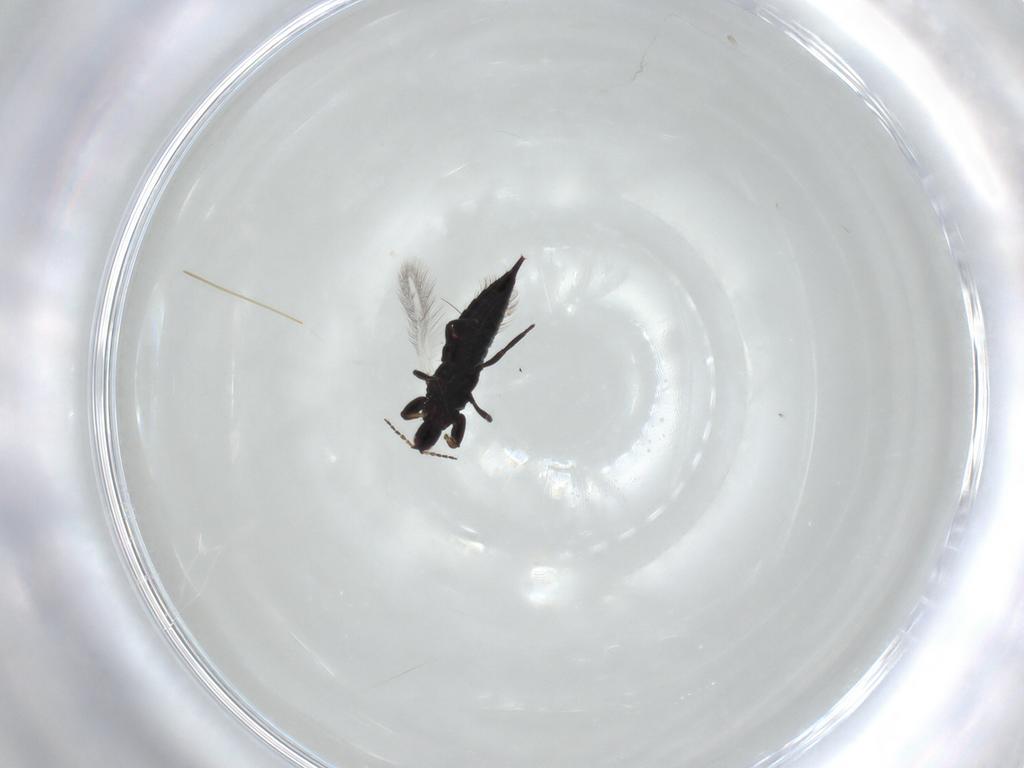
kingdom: Animalia
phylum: Arthropoda
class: Insecta
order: Thysanoptera
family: Phlaeothripidae
